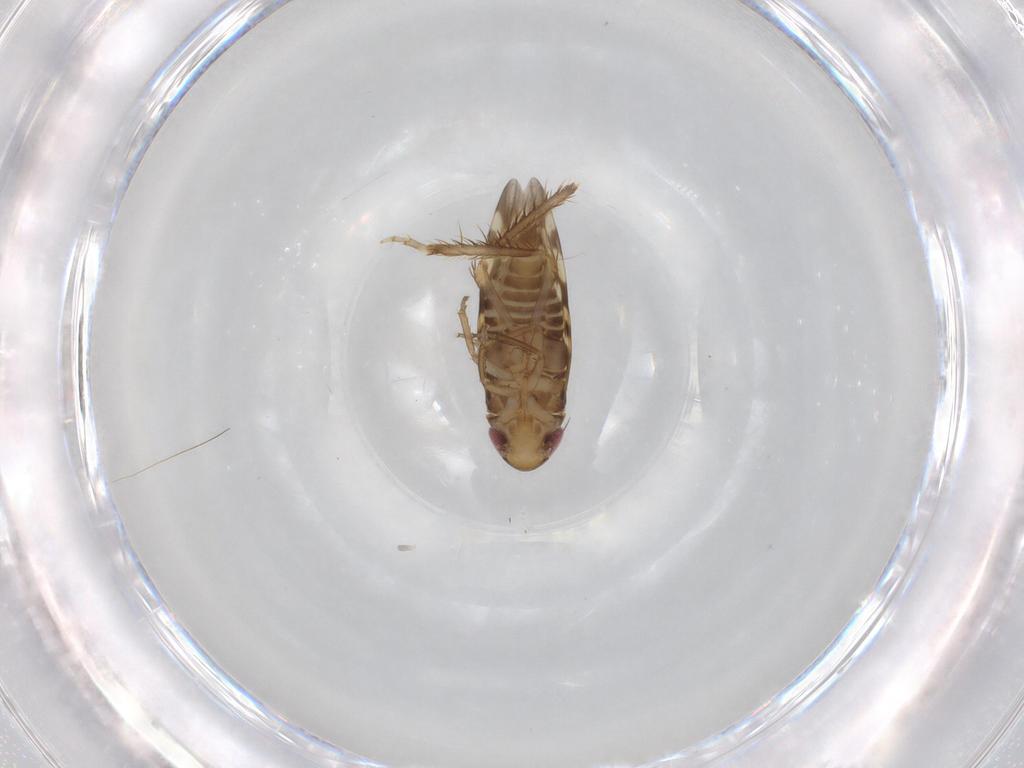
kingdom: Animalia
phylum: Arthropoda
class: Insecta
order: Hemiptera
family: Cicadellidae
